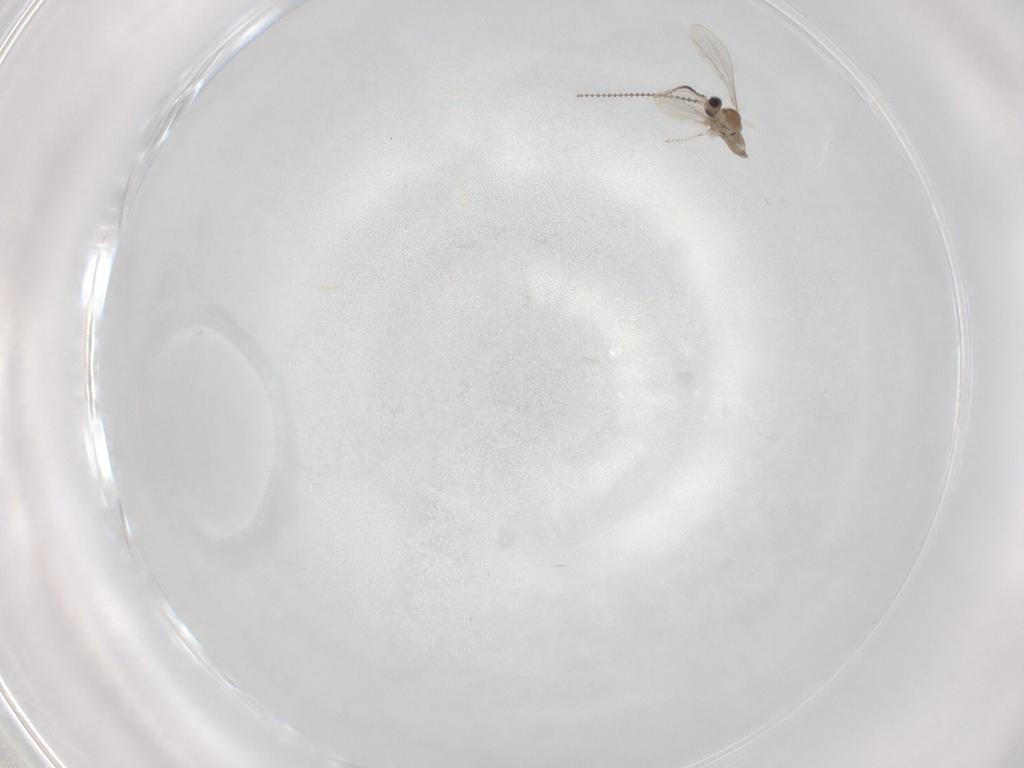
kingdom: Animalia
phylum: Arthropoda
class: Insecta
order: Diptera
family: Cecidomyiidae
